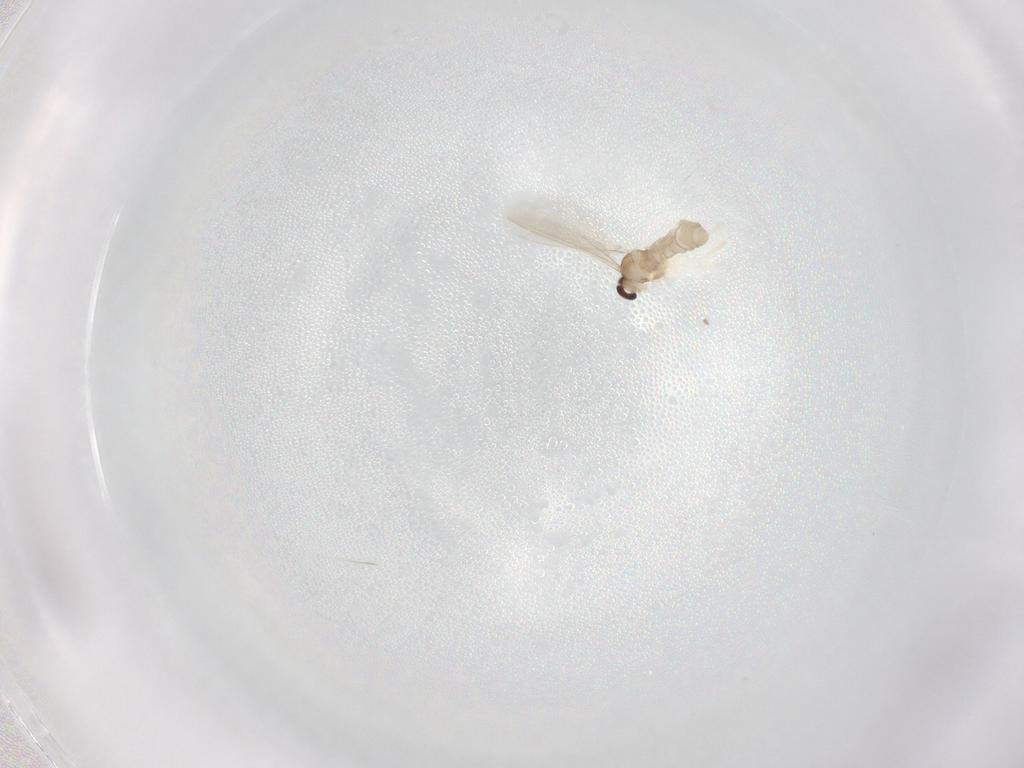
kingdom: Animalia
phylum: Arthropoda
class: Insecta
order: Diptera
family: Cecidomyiidae
